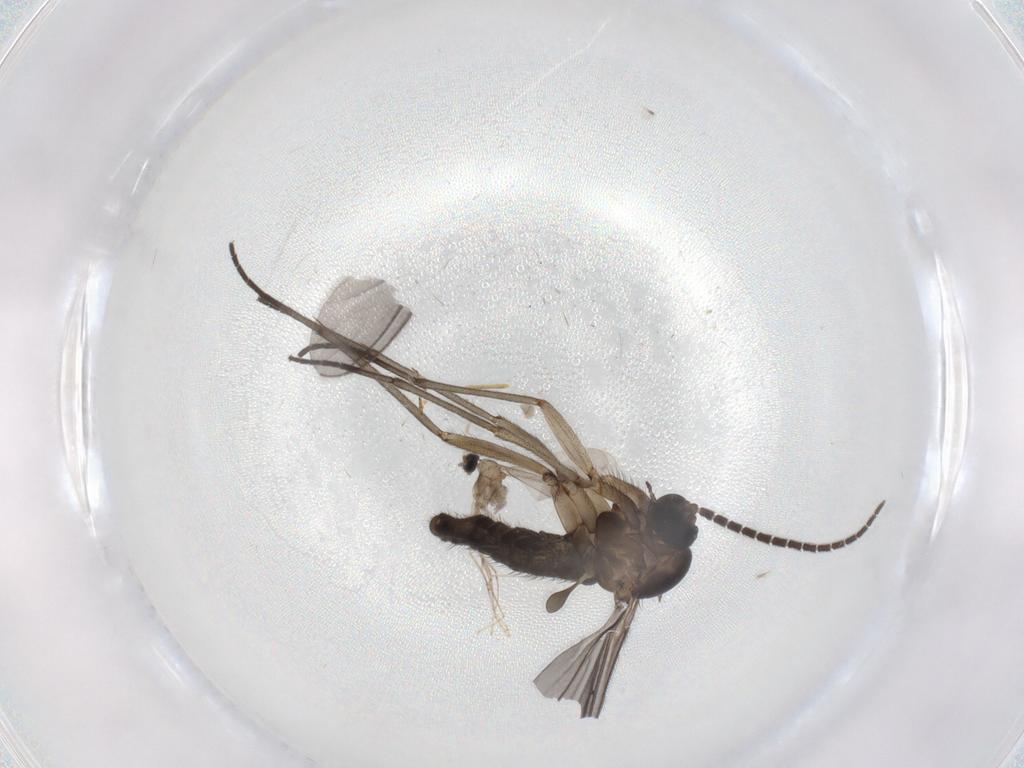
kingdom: Animalia
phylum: Arthropoda
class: Insecta
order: Diptera
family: Sciaridae
